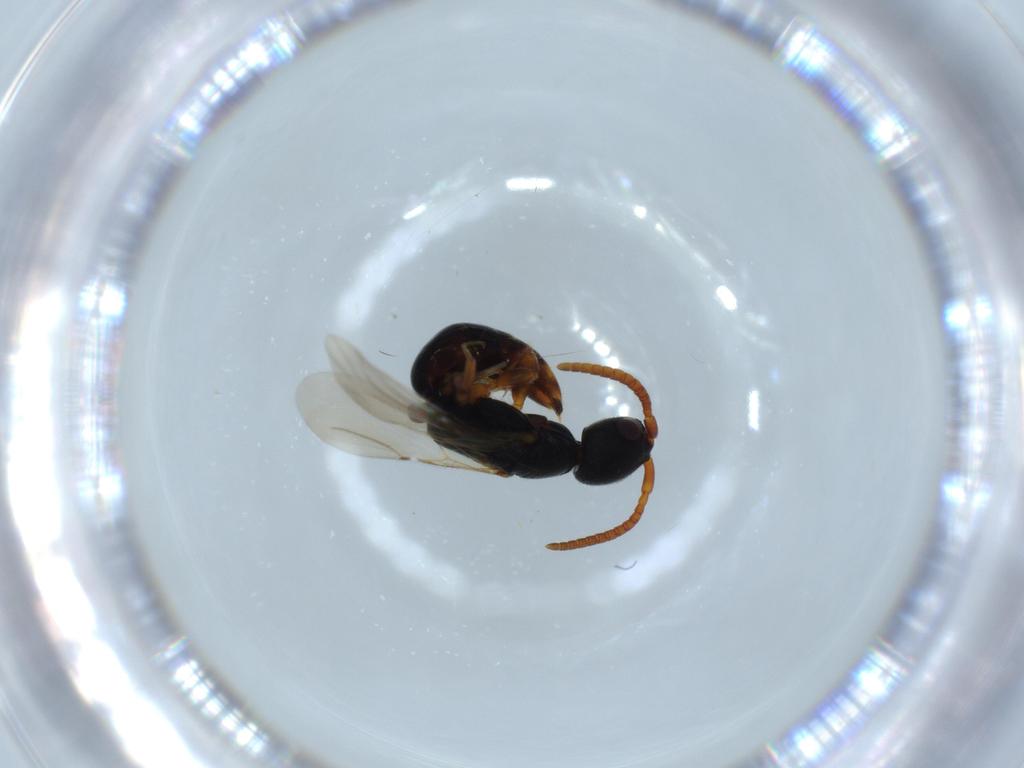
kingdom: Animalia
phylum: Arthropoda
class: Insecta
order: Hymenoptera
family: Bethylidae
